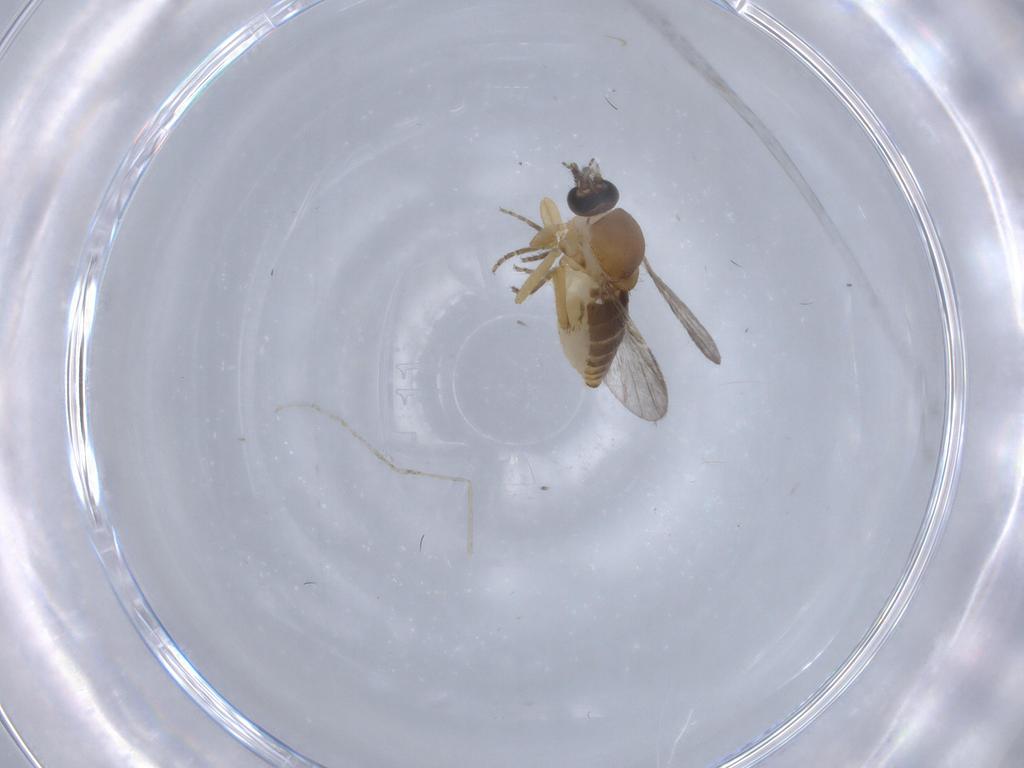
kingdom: Animalia
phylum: Arthropoda
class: Insecta
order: Diptera
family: Ceratopogonidae
